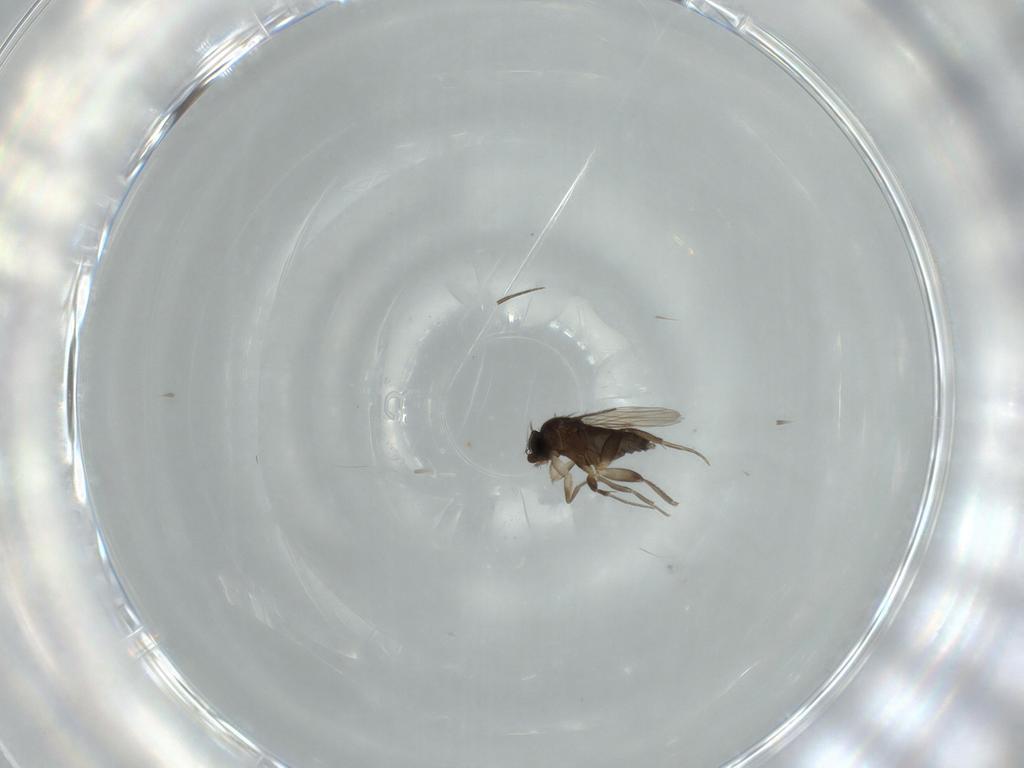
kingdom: Animalia
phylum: Arthropoda
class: Insecta
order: Diptera
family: Phoridae
